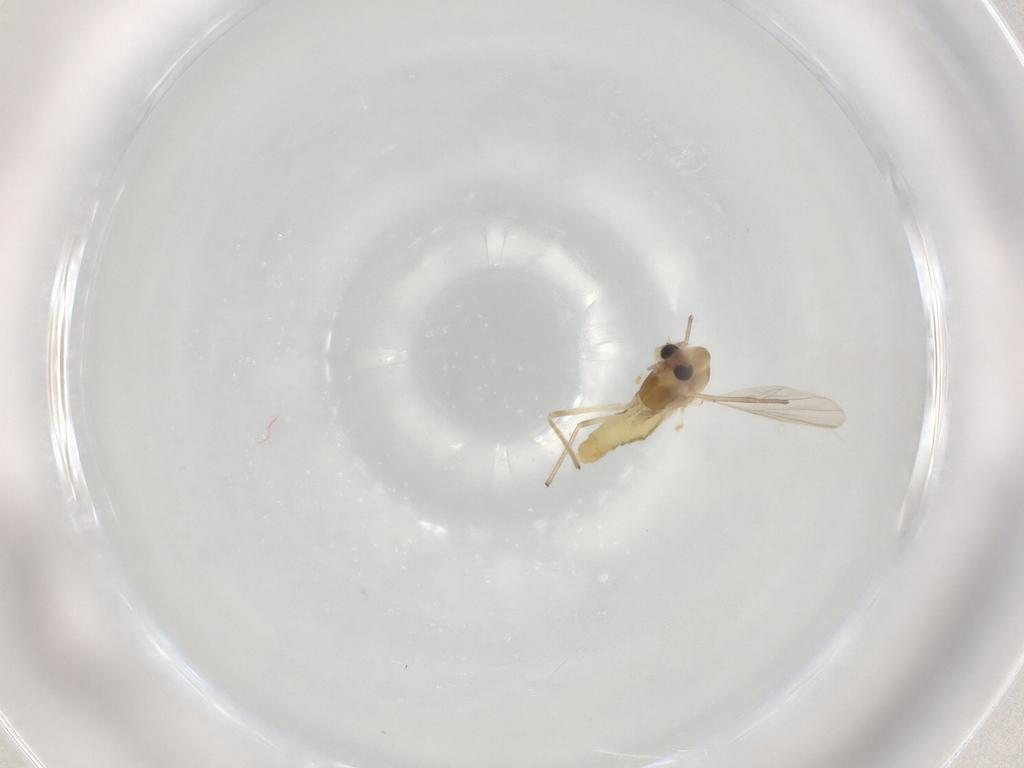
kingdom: Animalia
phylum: Arthropoda
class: Insecta
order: Diptera
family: Chironomidae
